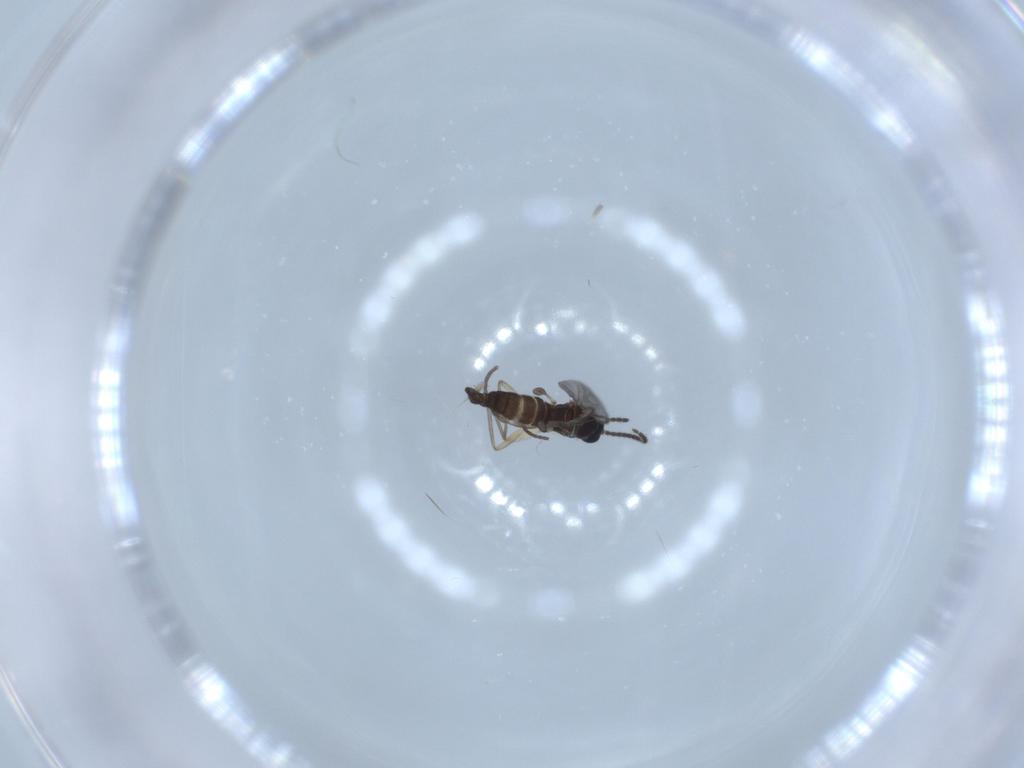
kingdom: Animalia
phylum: Arthropoda
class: Insecta
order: Diptera
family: Sciaridae
